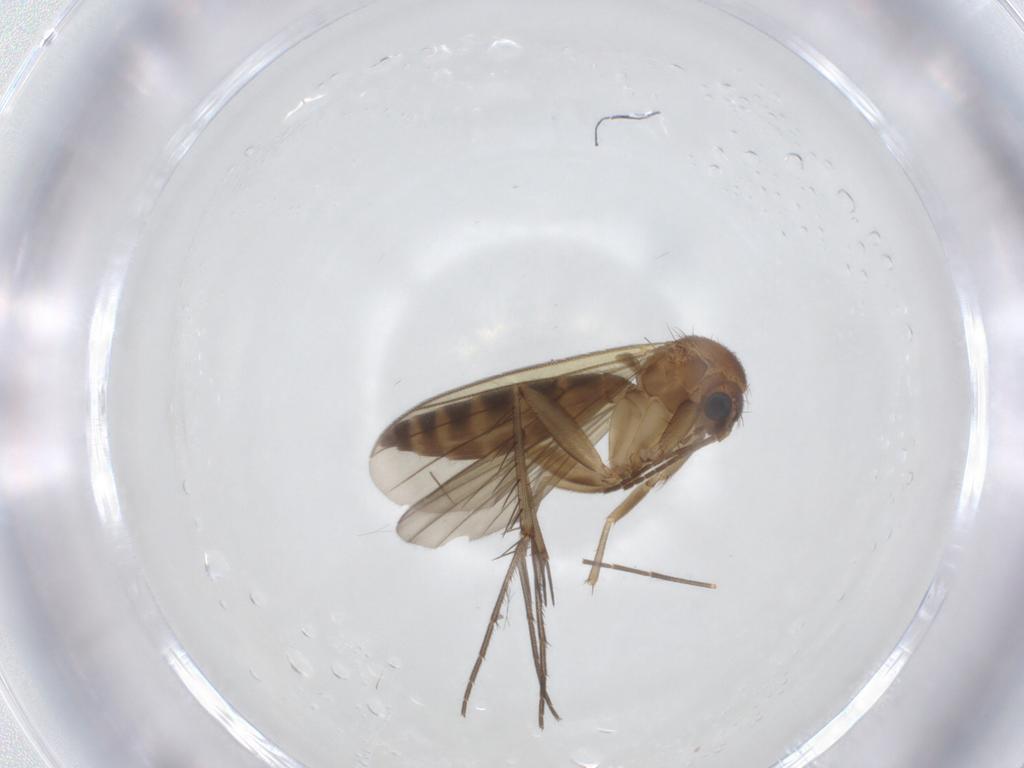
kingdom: Animalia
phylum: Arthropoda
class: Insecta
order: Diptera
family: Mycetophilidae
